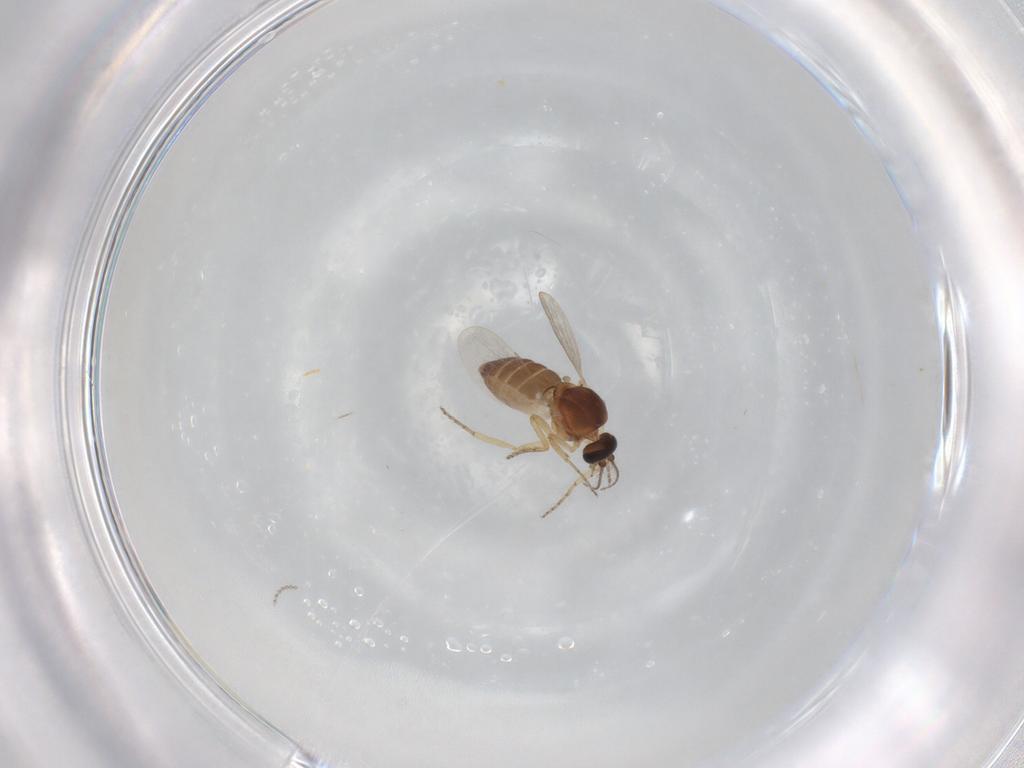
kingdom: Animalia
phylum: Arthropoda
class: Insecta
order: Diptera
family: Ceratopogonidae
